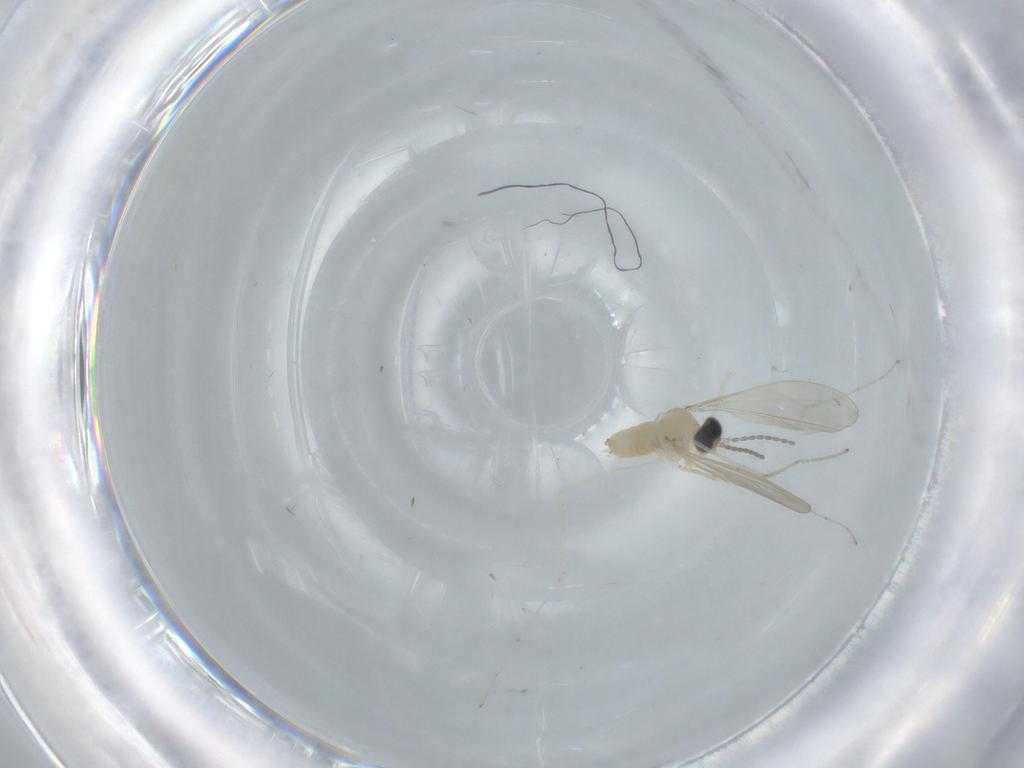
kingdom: Animalia
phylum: Arthropoda
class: Insecta
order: Diptera
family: Cecidomyiidae
